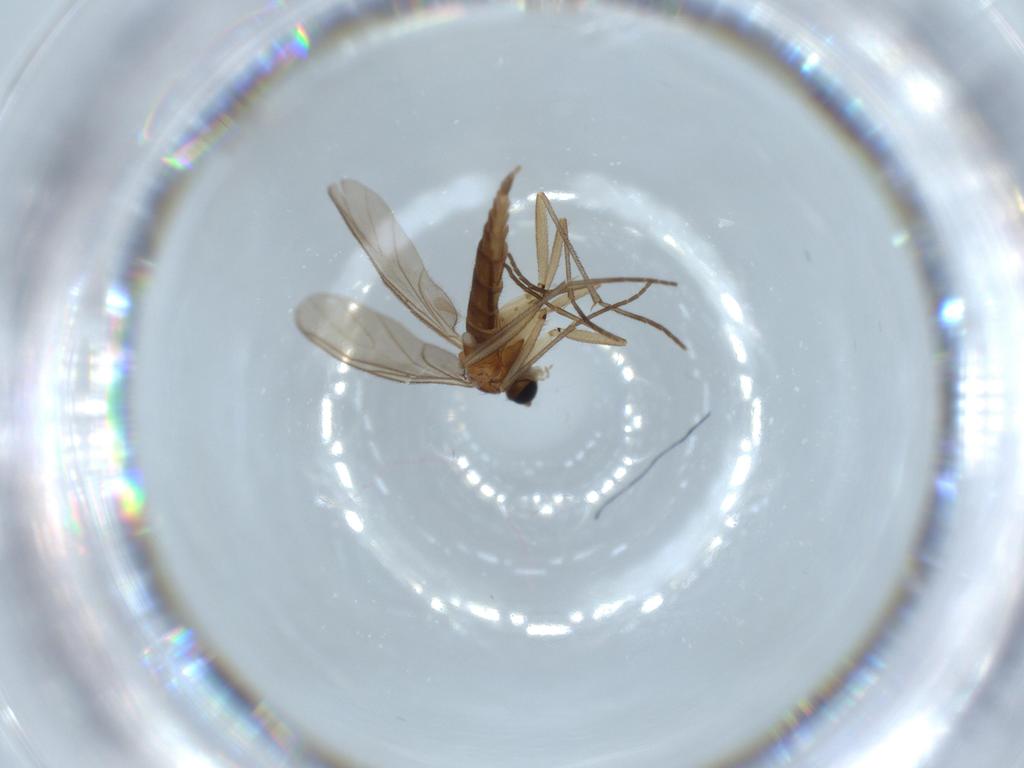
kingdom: Animalia
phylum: Arthropoda
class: Insecta
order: Diptera
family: Sciaridae
